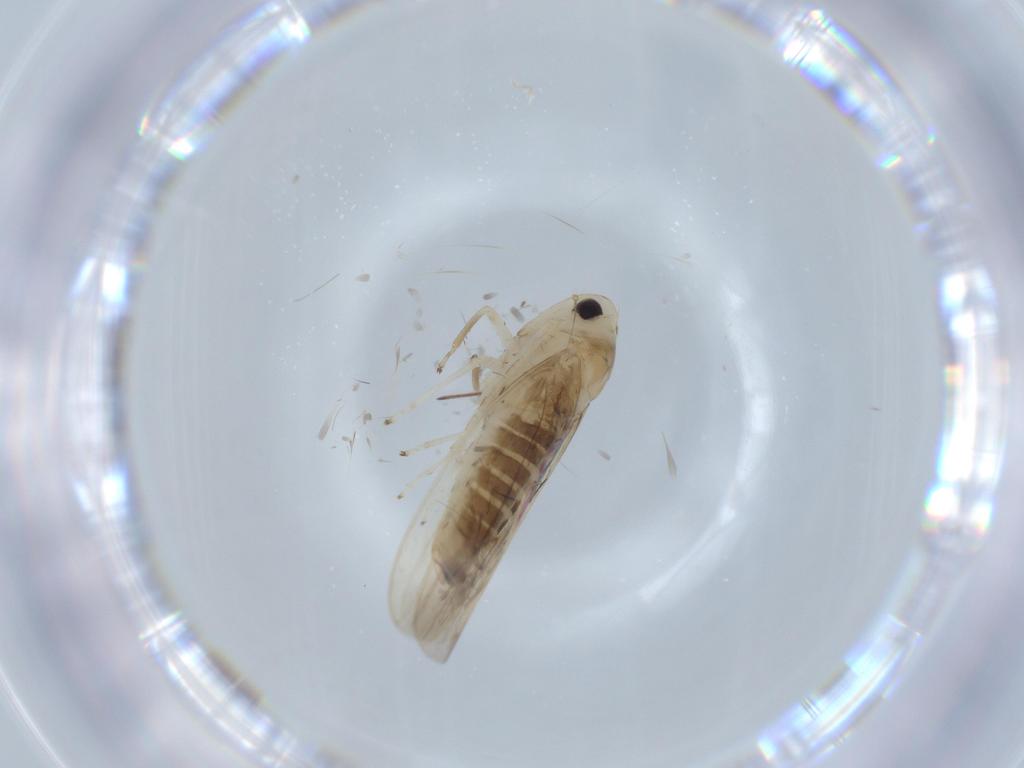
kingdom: Animalia
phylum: Arthropoda
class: Insecta
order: Hemiptera
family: Cicadellidae
